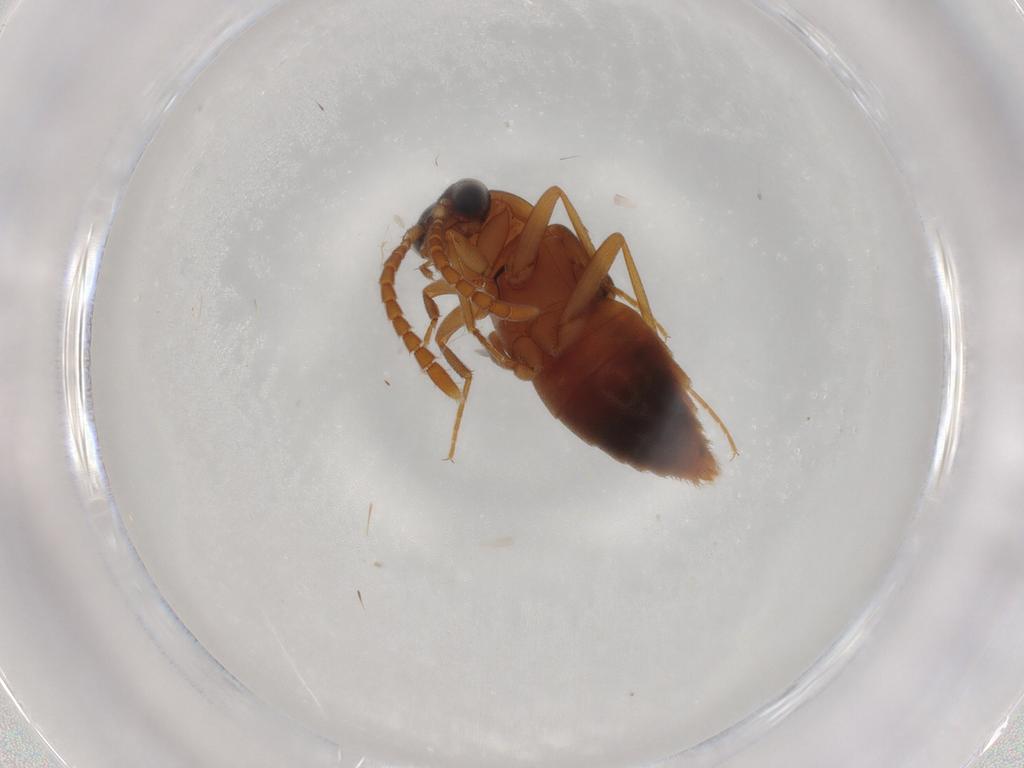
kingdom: Animalia
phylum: Arthropoda
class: Insecta
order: Coleoptera
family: Staphylinidae
